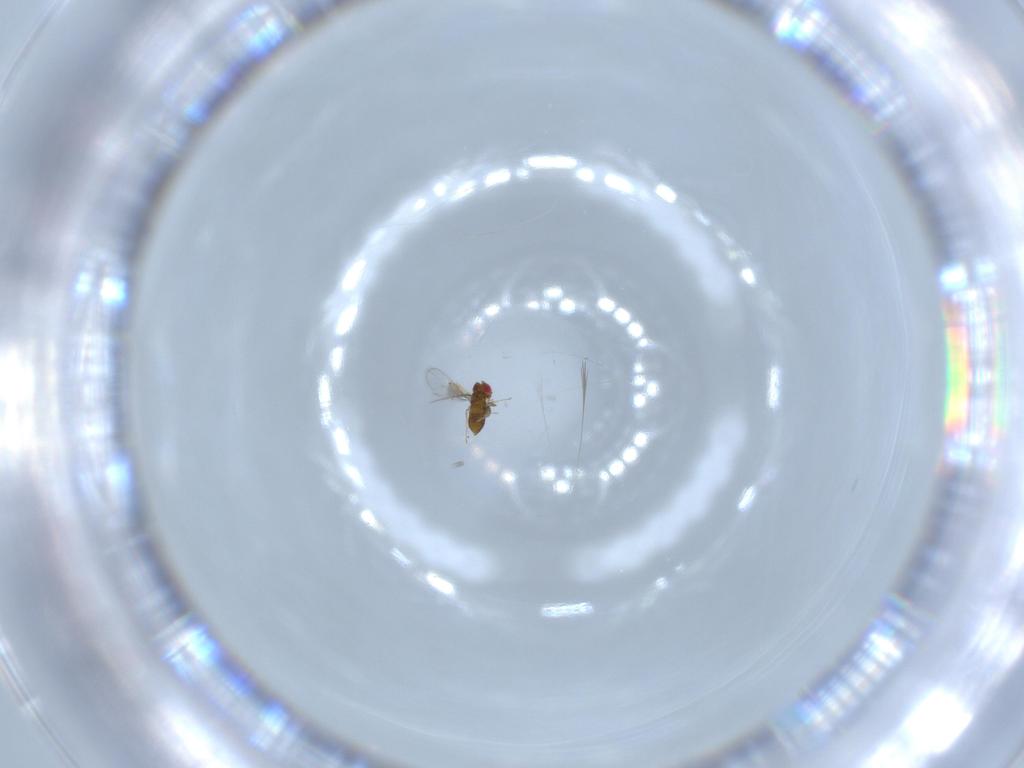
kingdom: Animalia
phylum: Arthropoda
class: Insecta
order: Hymenoptera
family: Trichogrammatidae
